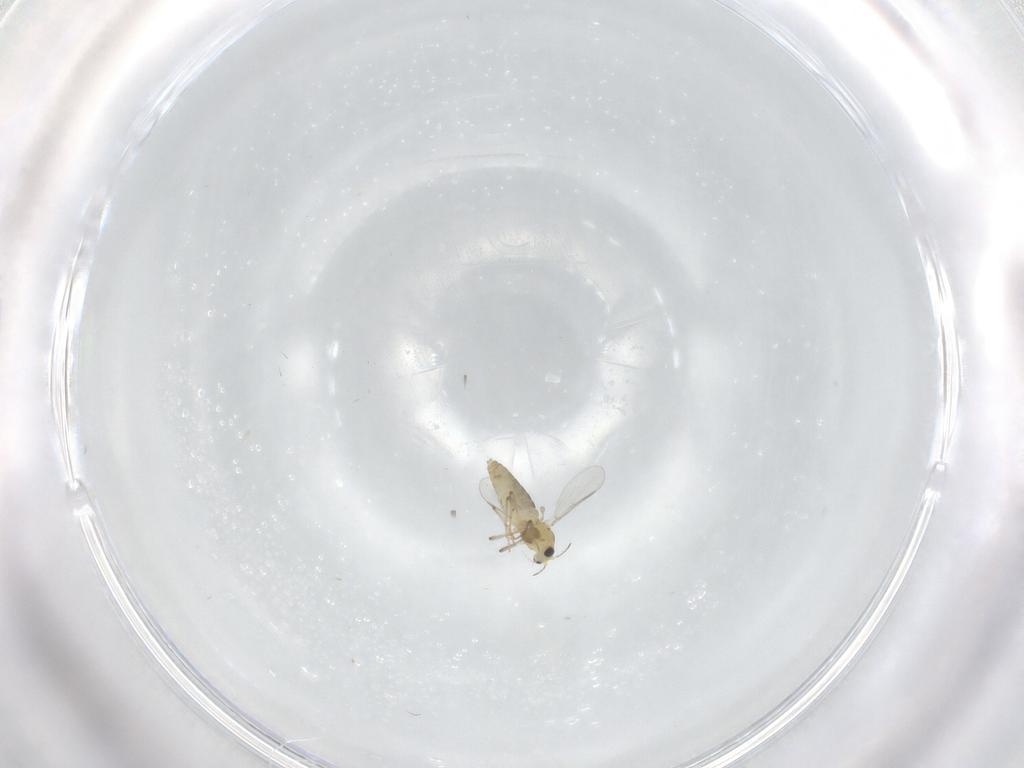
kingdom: Animalia
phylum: Arthropoda
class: Insecta
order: Diptera
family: Chironomidae
